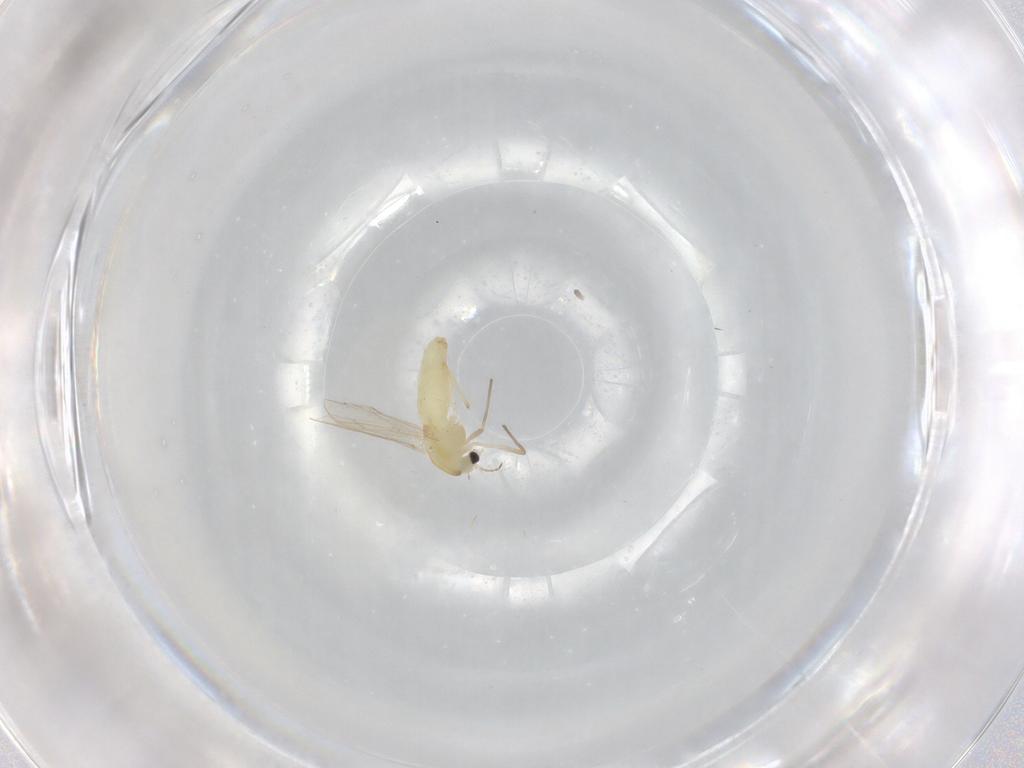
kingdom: Animalia
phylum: Arthropoda
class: Insecta
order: Diptera
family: Chironomidae
